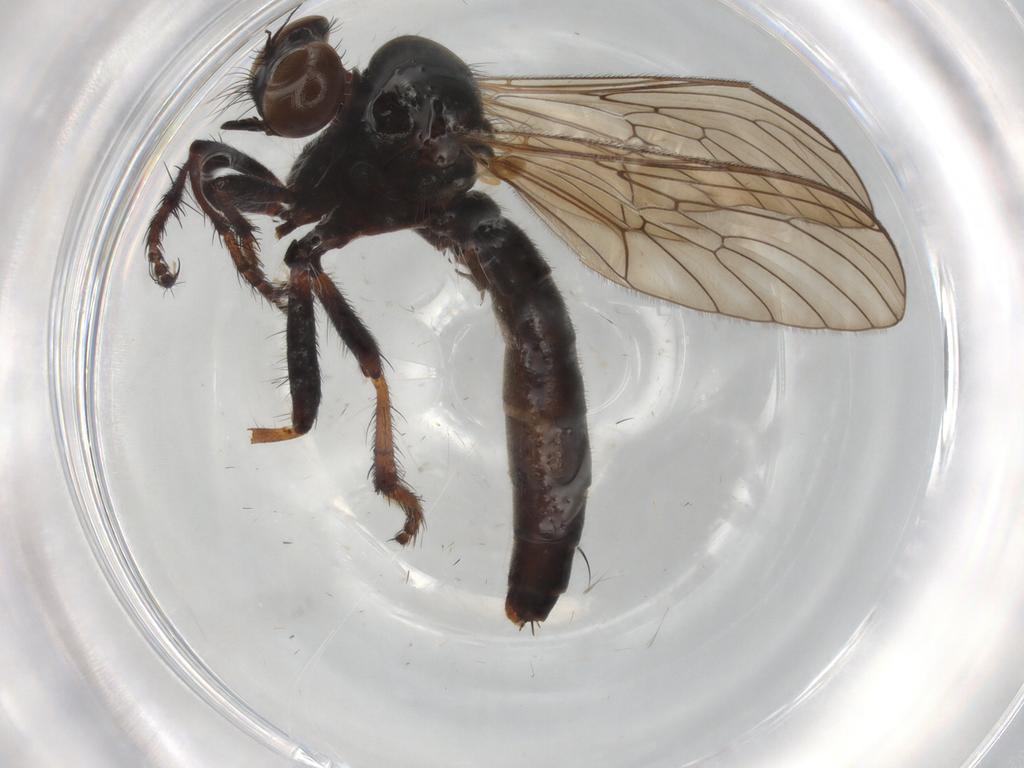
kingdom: Animalia
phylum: Arthropoda
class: Insecta
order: Diptera
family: Asilidae
